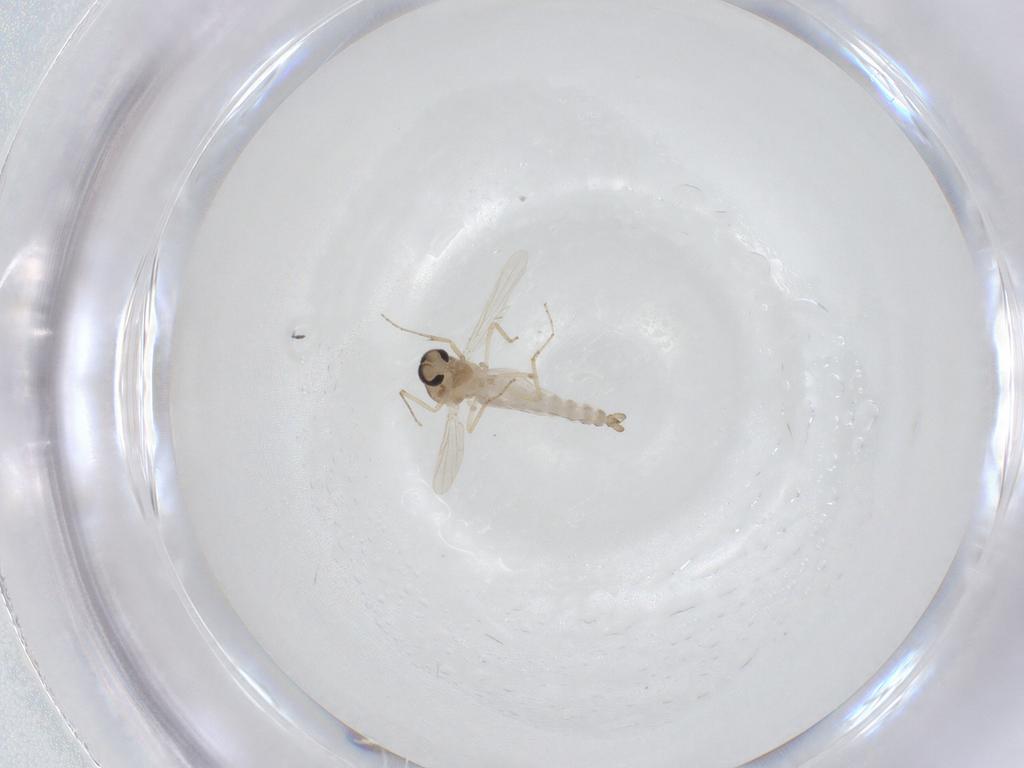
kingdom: Animalia
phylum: Arthropoda
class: Insecta
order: Diptera
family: Ceratopogonidae
